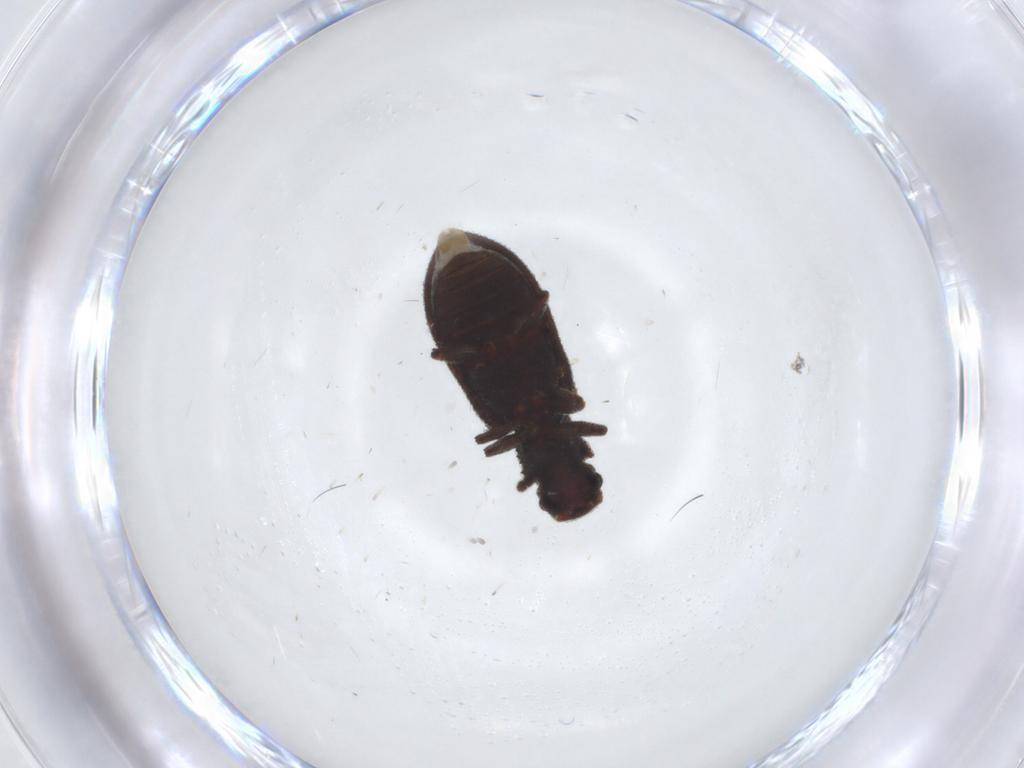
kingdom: Animalia
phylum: Arthropoda
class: Insecta
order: Coleoptera
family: Zopheridae
